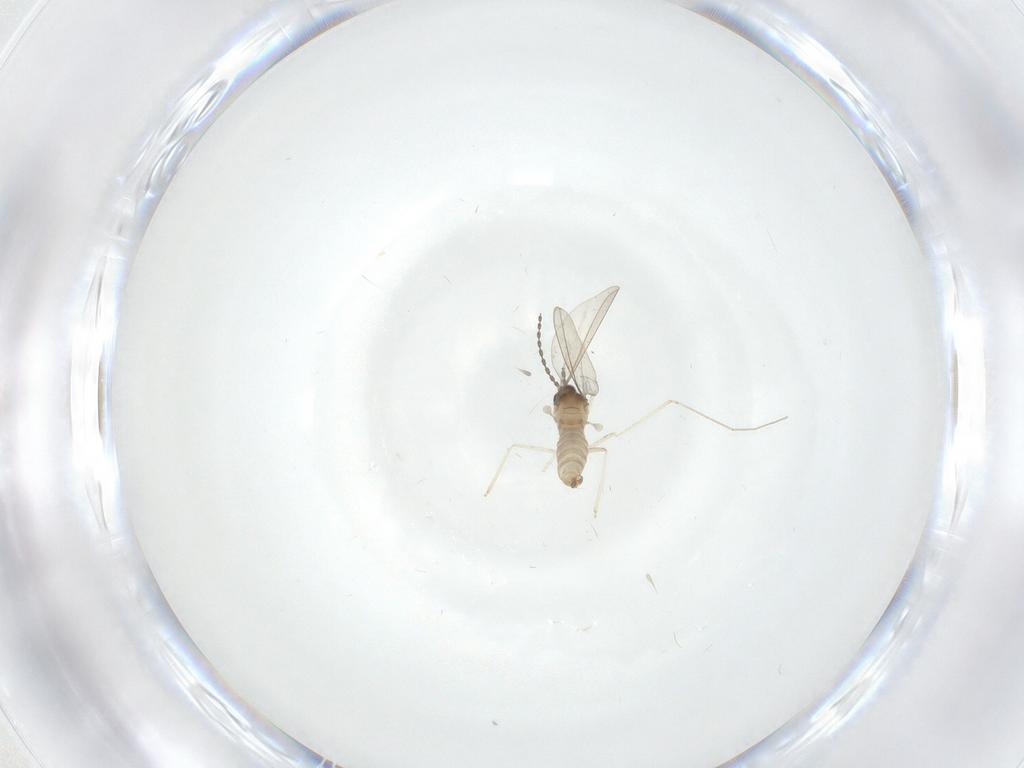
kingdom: Animalia
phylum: Arthropoda
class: Insecta
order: Diptera
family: Cecidomyiidae
